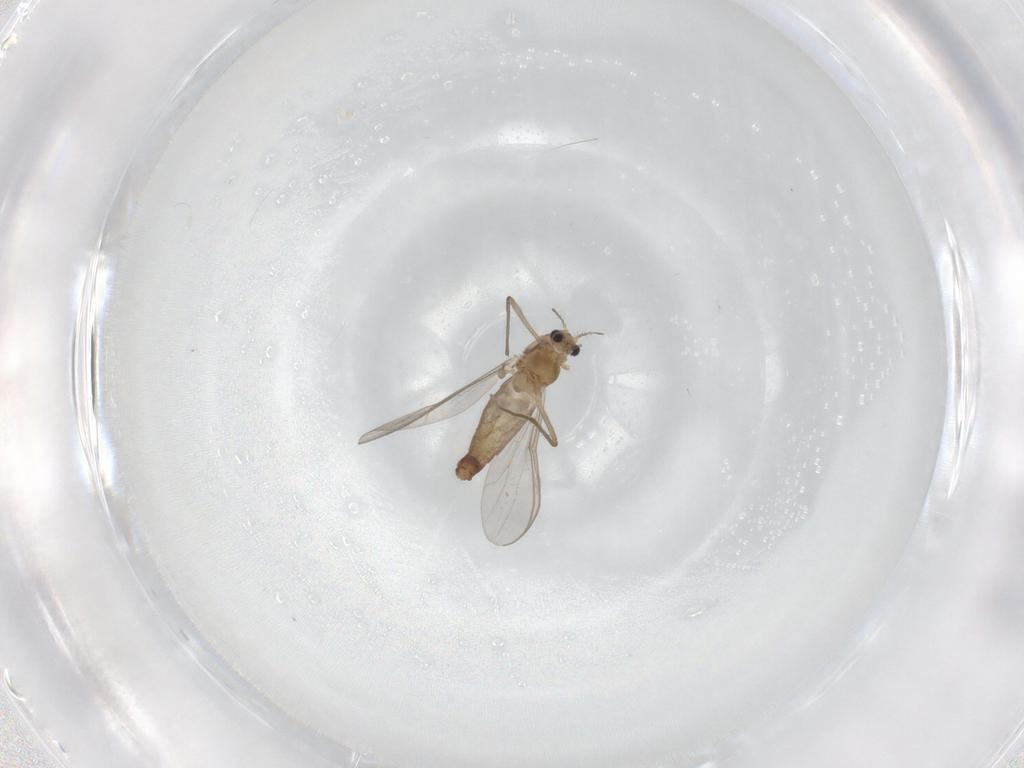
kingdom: Animalia
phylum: Arthropoda
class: Insecta
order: Diptera
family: Chironomidae
